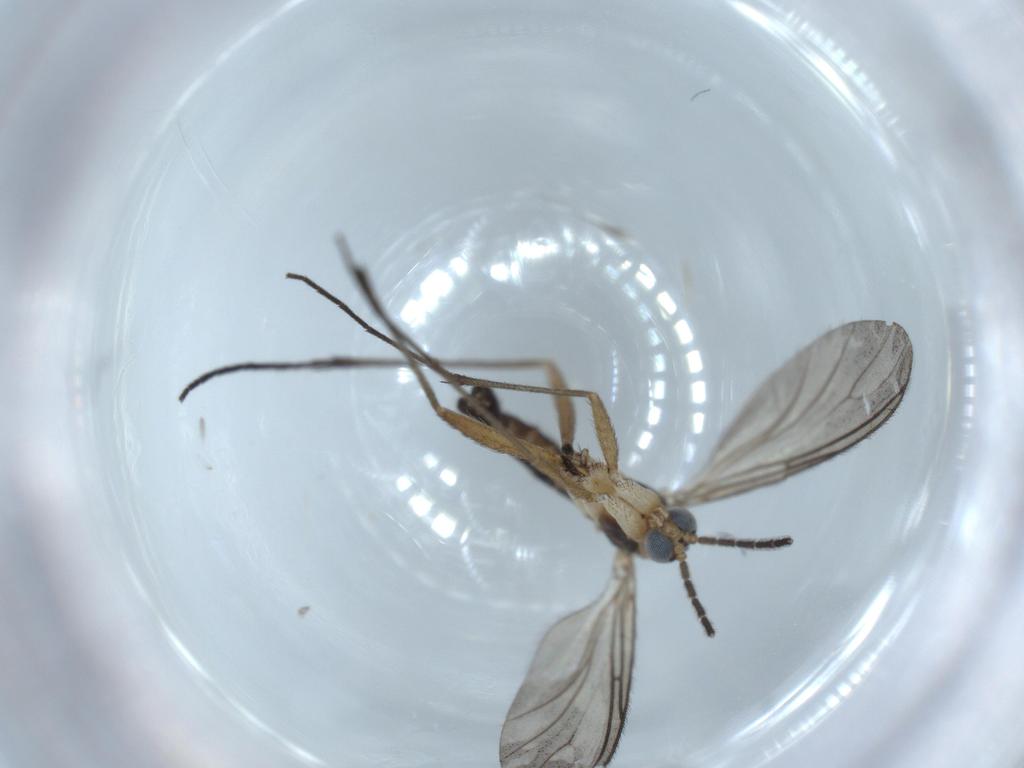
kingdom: Animalia
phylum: Arthropoda
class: Insecta
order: Diptera
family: Sciaridae
